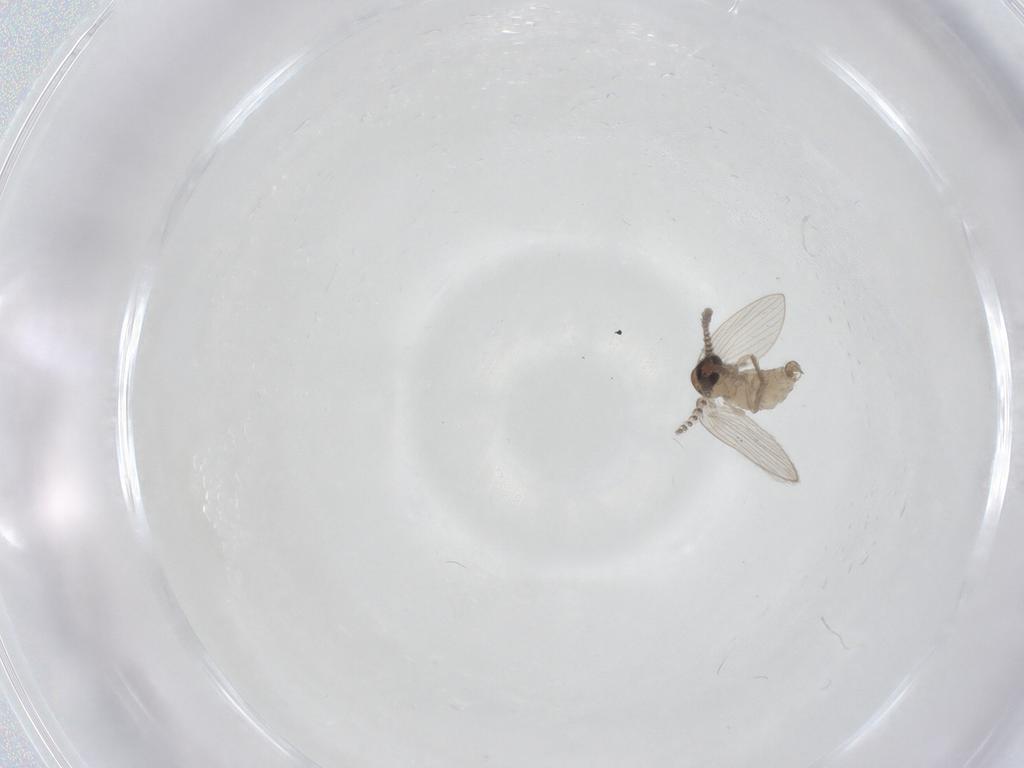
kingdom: Animalia
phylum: Arthropoda
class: Insecta
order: Diptera
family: Psychodidae
